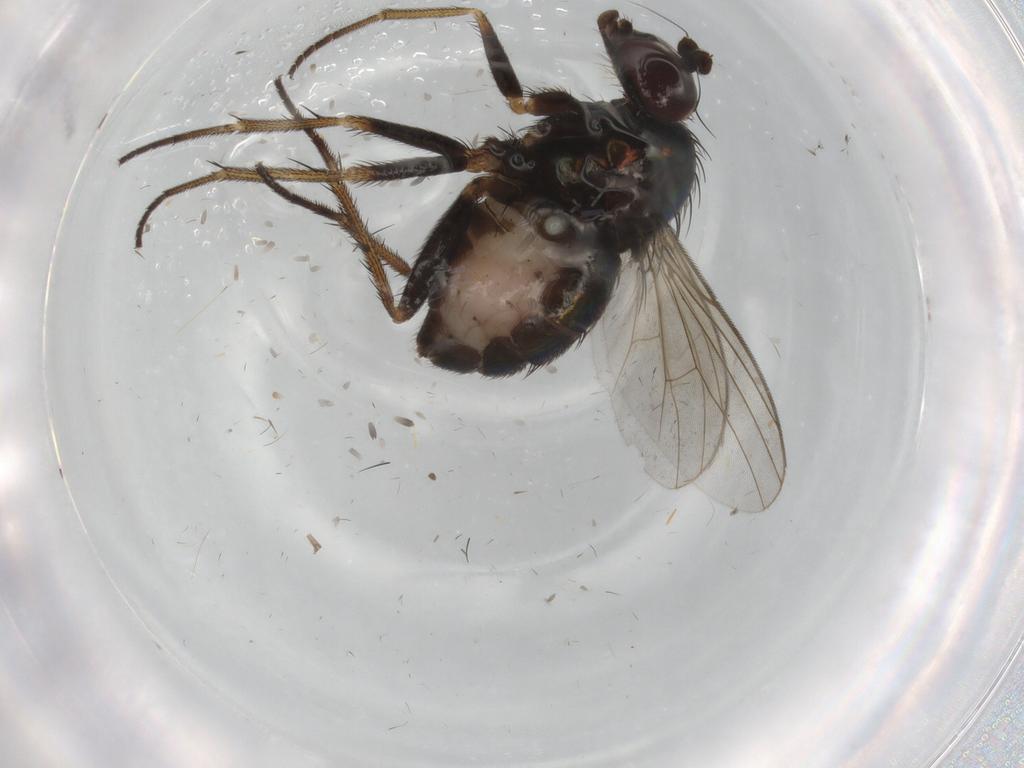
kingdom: Animalia
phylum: Arthropoda
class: Insecta
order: Diptera
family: Dolichopodidae
